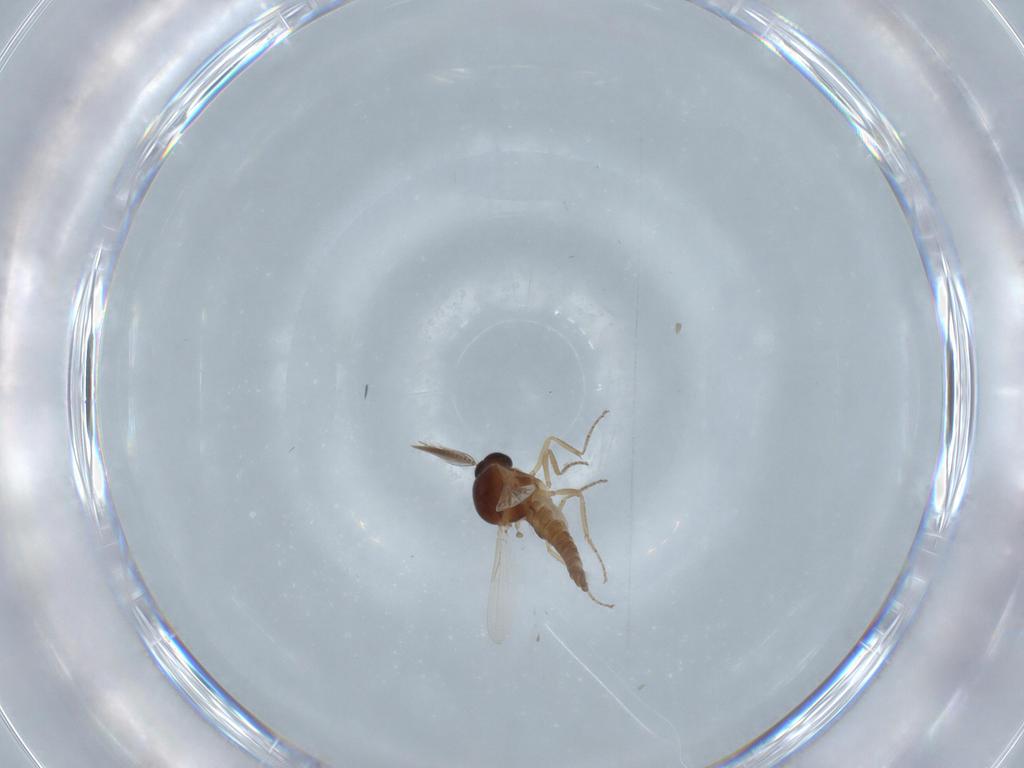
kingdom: Animalia
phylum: Arthropoda
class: Insecta
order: Diptera
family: Ceratopogonidae
